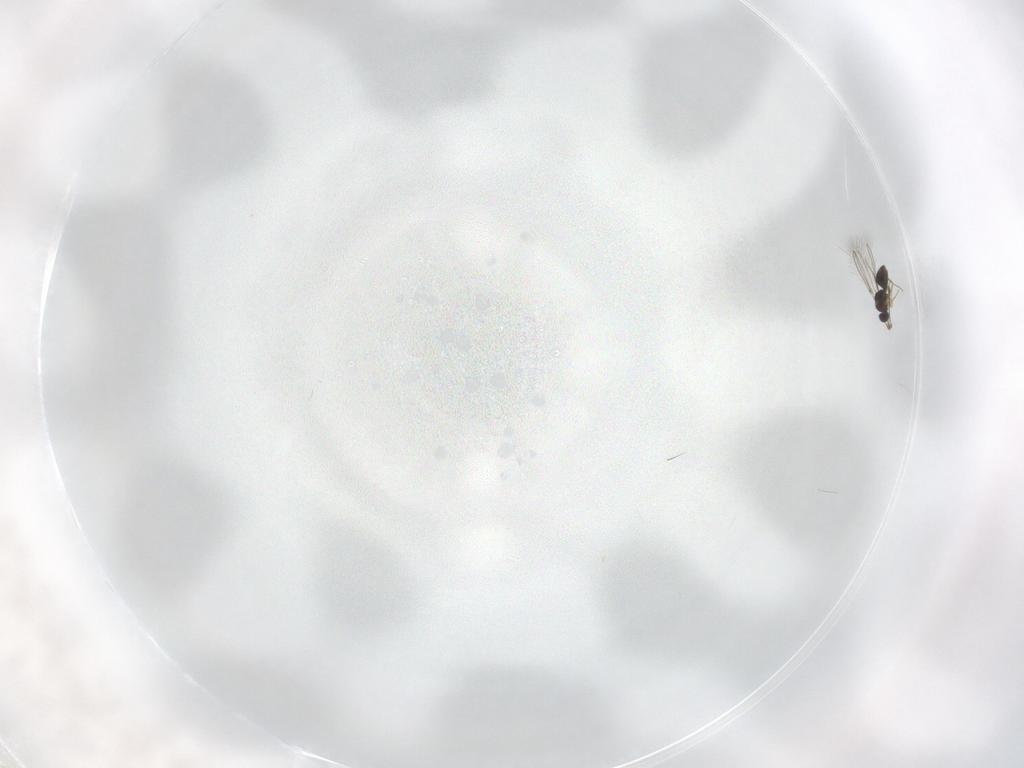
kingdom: Animalia
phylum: Arthropoda
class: Insecta
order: Hymenoptera
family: Mymaridae
